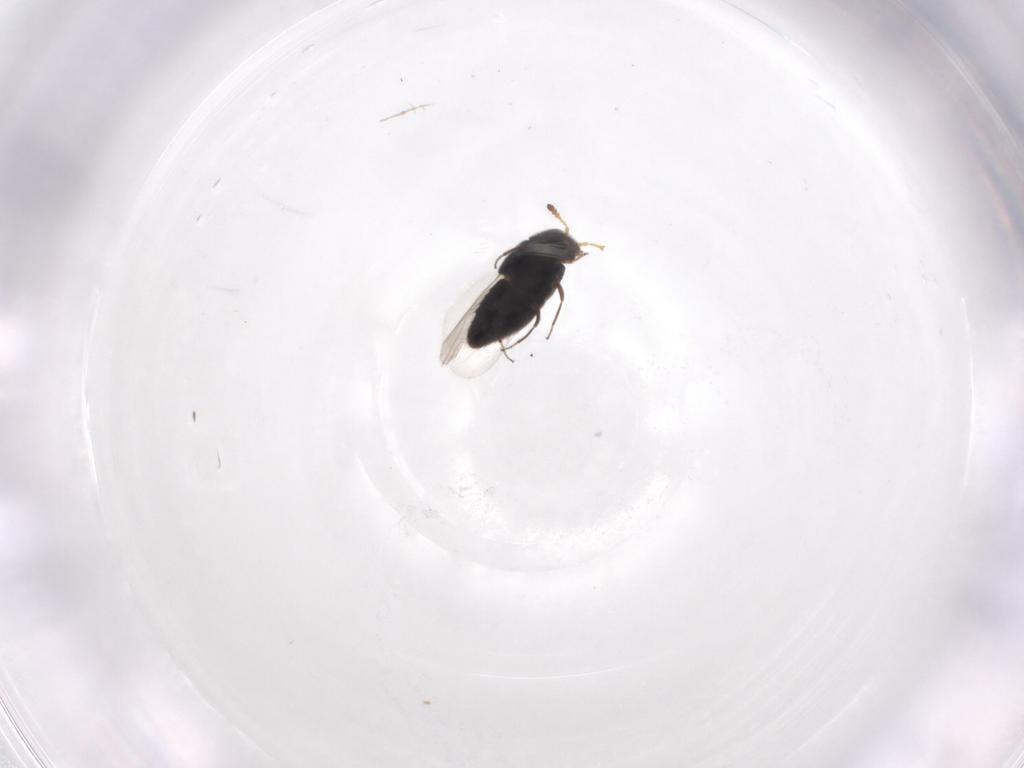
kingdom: Animalia
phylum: Arthropoda
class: Insecta
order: Coleoptera
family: Staphylinidae
